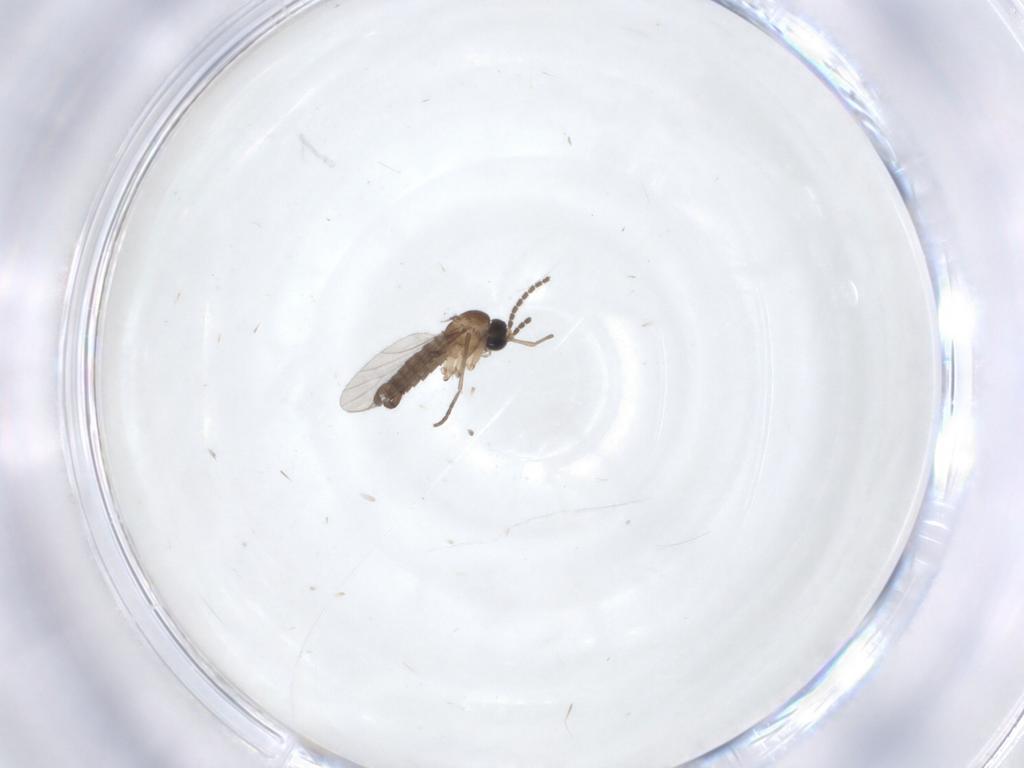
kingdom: Animalia
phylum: Arthropoda
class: Insecta
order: Diptera
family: Sciaridae
